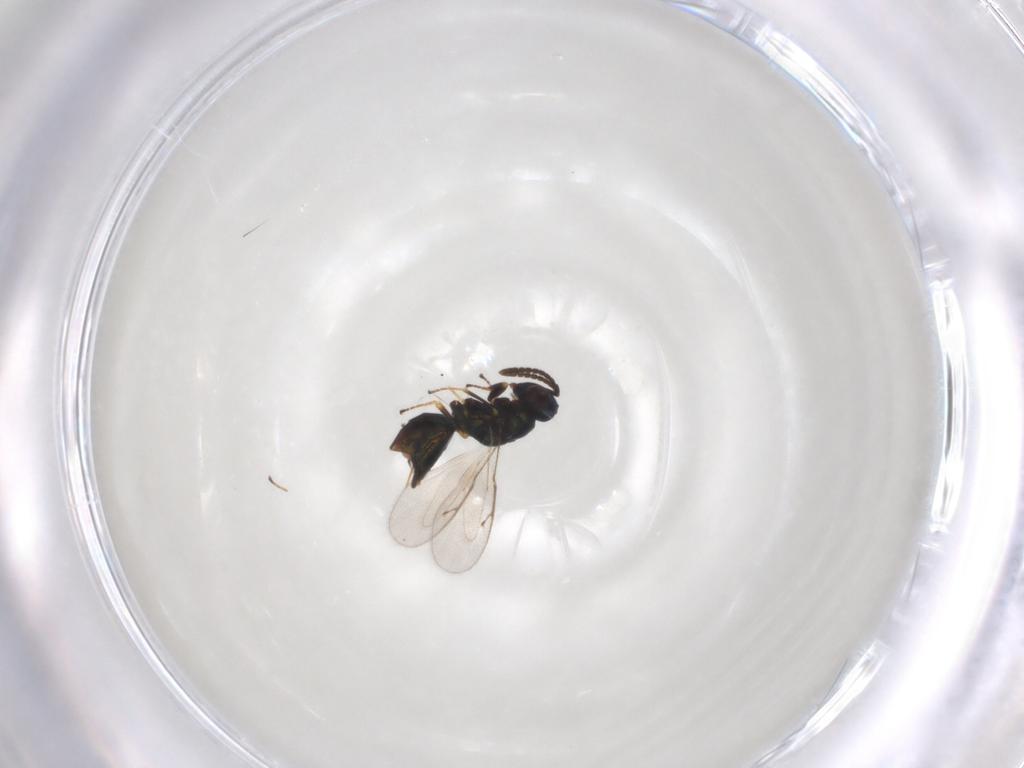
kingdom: Animalia
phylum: Arthropoda
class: Insecta
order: Hymenoptera
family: Pteromalidae
